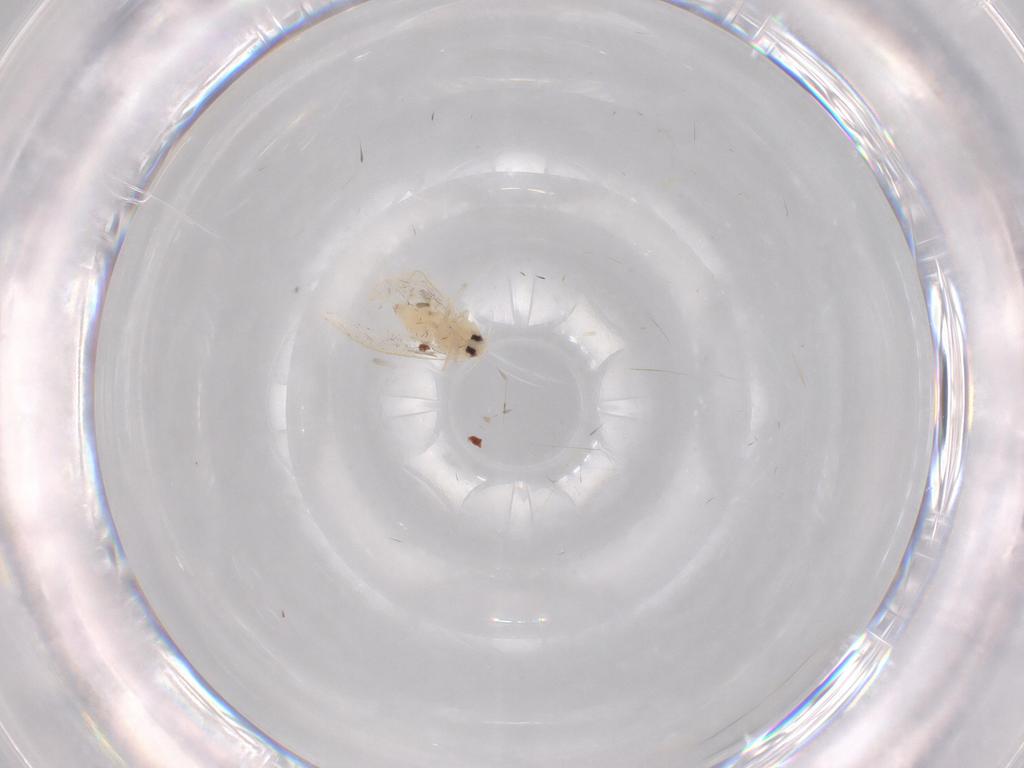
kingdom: Animalia
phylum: Arthropoda
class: Insecta
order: Hemiptera
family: Aleyrodidae
